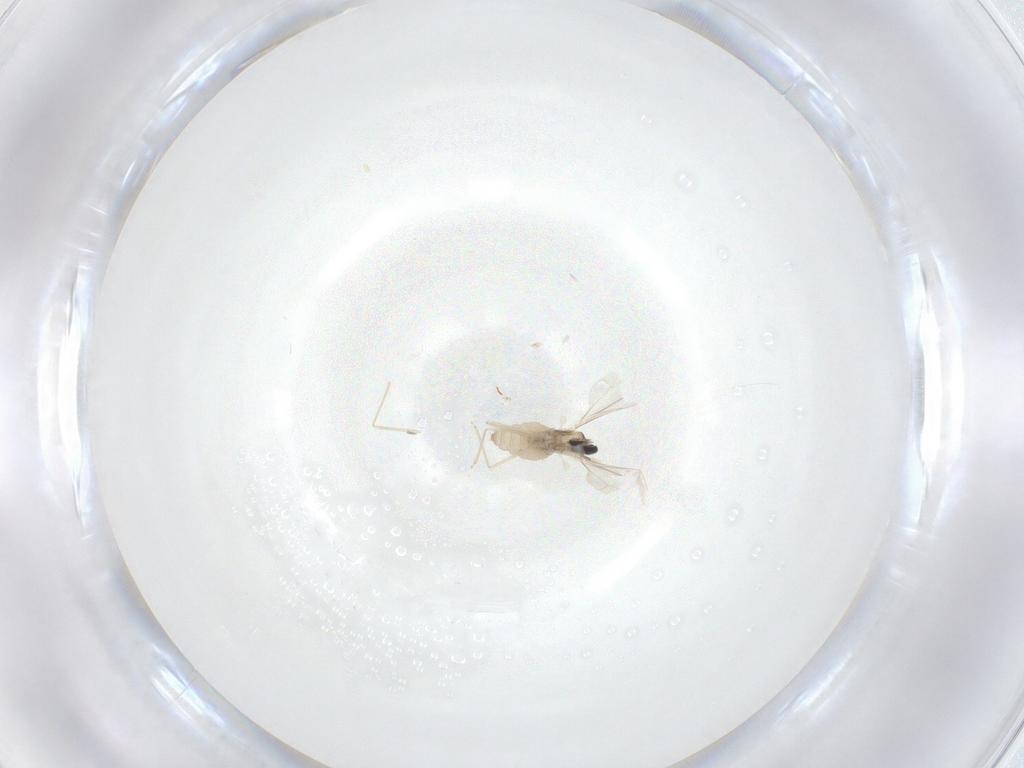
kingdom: Animalia
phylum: Arthropoda
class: Insecta
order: Diptera
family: Cecidomyiidae
